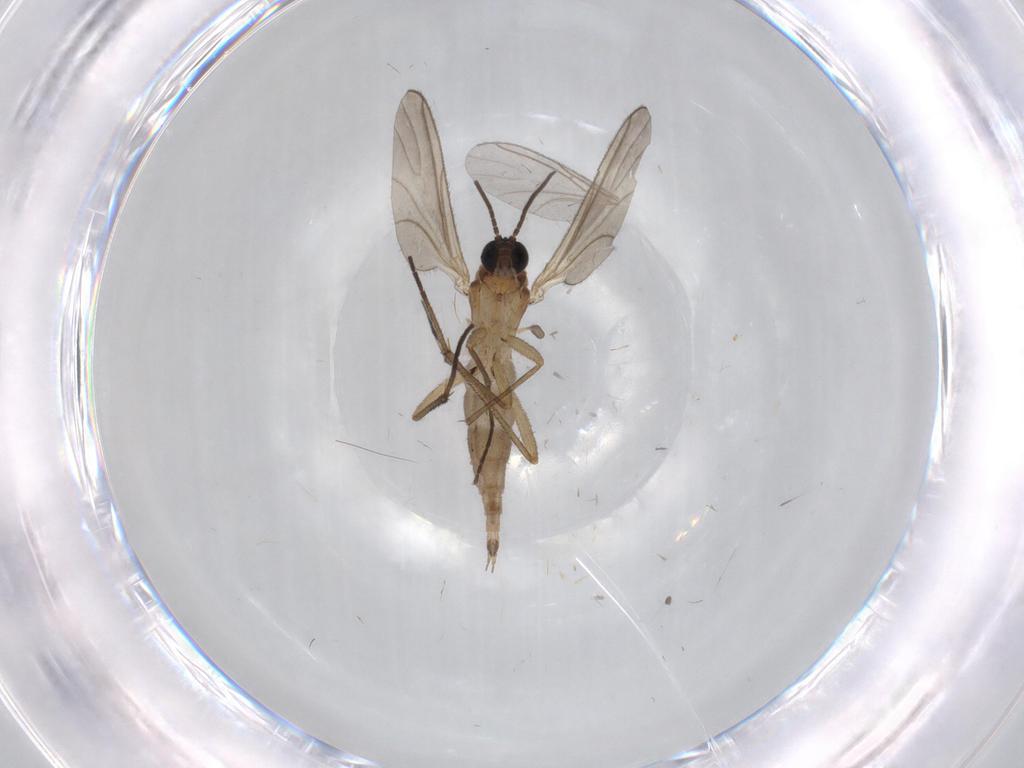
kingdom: Animalia
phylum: Arthropoda
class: Insecta
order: Diptera
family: Sciaridae
